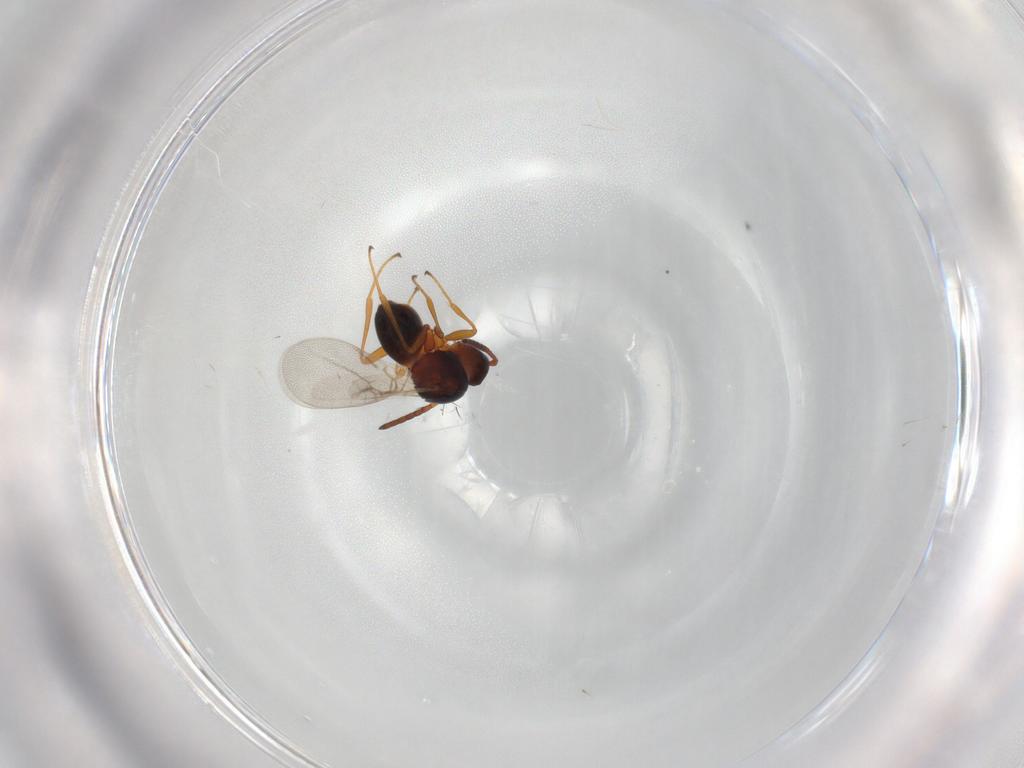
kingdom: Animalia
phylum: Arthropoda
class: Insecta
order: Hymenoptera
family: Figitidae
